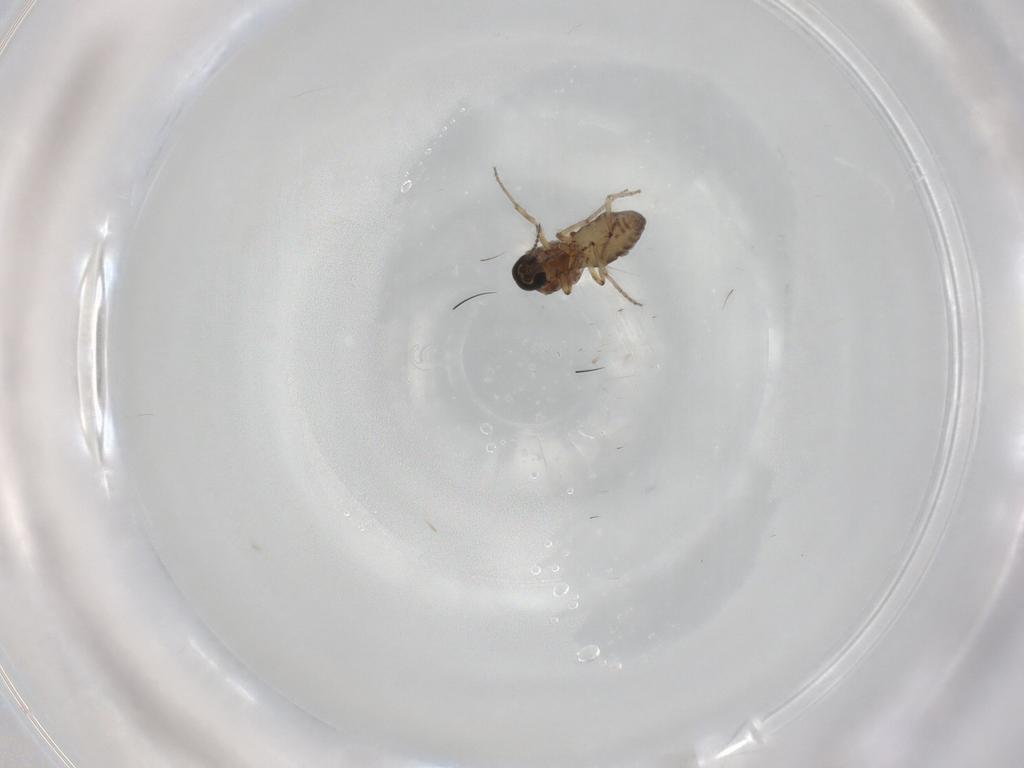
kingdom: Animalia
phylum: Arthropoda
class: Insecta
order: Diptera
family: Ceratopogonidae
